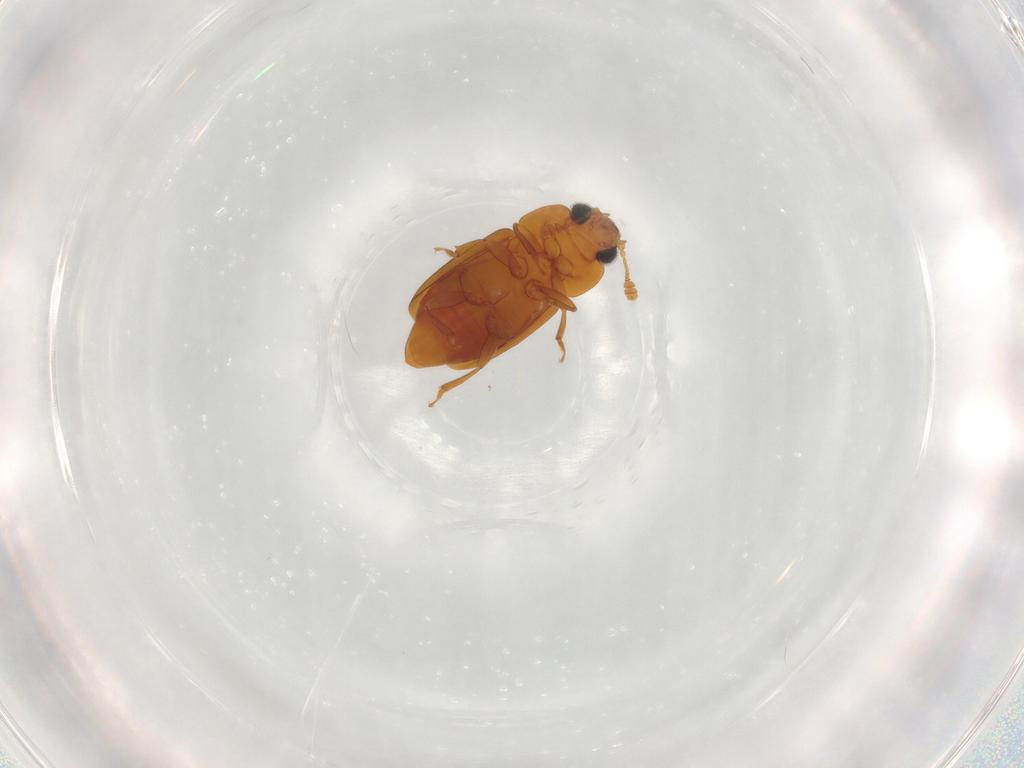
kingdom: Animalia
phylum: Arthropoda
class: Insecta
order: Coleoptera
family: Nitidulidae
